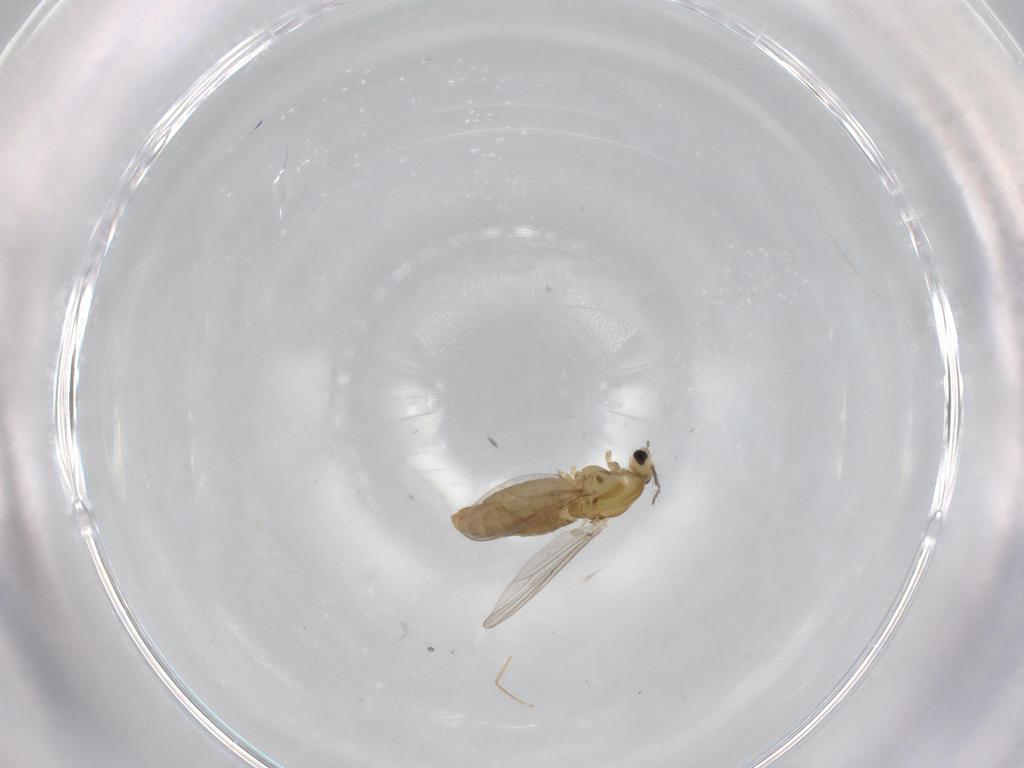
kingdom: Animalia
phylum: Arthropoda
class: Insecta
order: Diptera
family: Chironomidae
